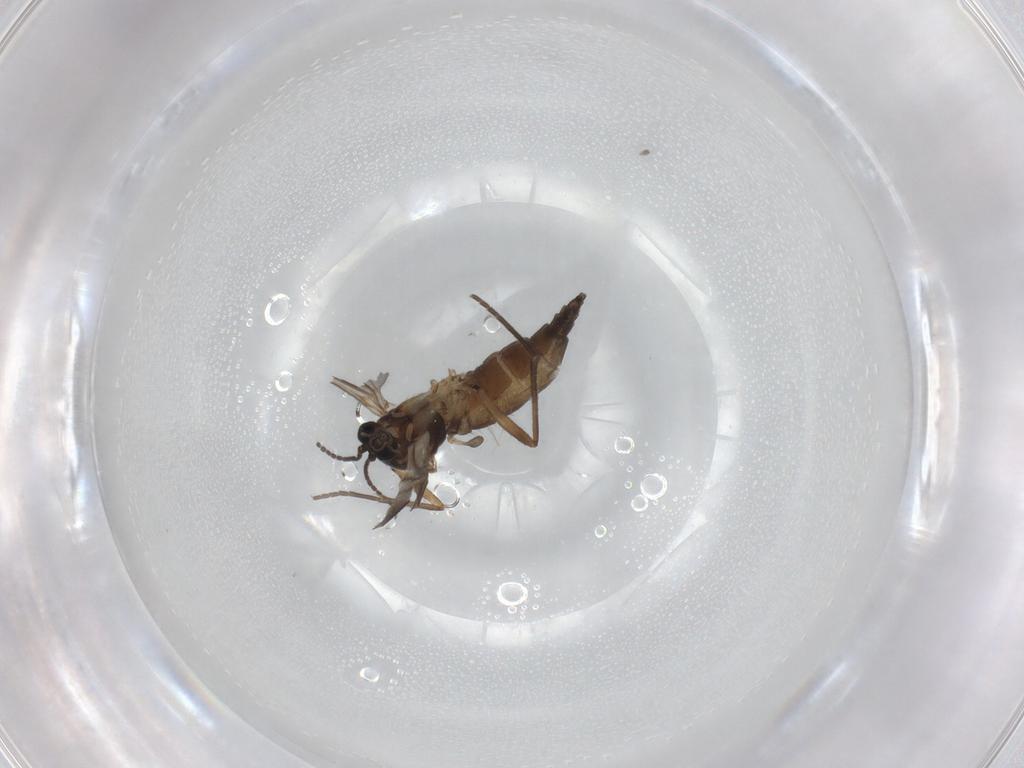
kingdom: Animalia
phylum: Arthropoda
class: Insecta
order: Diptera
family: Sciaridae
